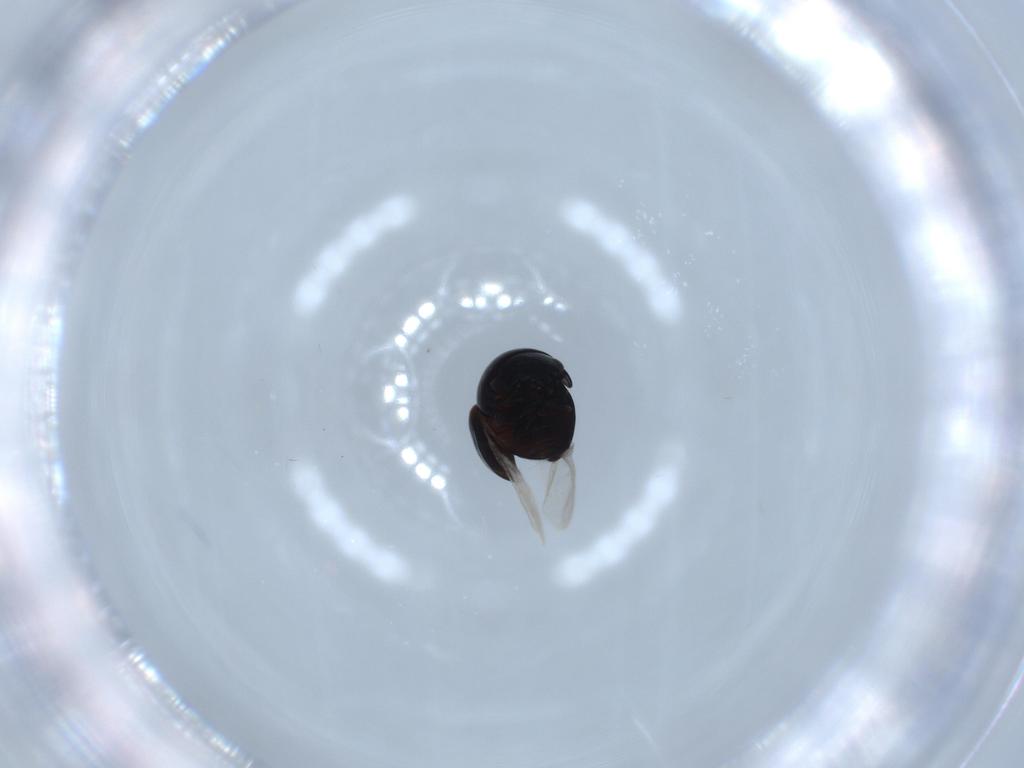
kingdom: Animalia
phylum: Arthropoda
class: Insecta
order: Coleoptera
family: Cybocephalidae
